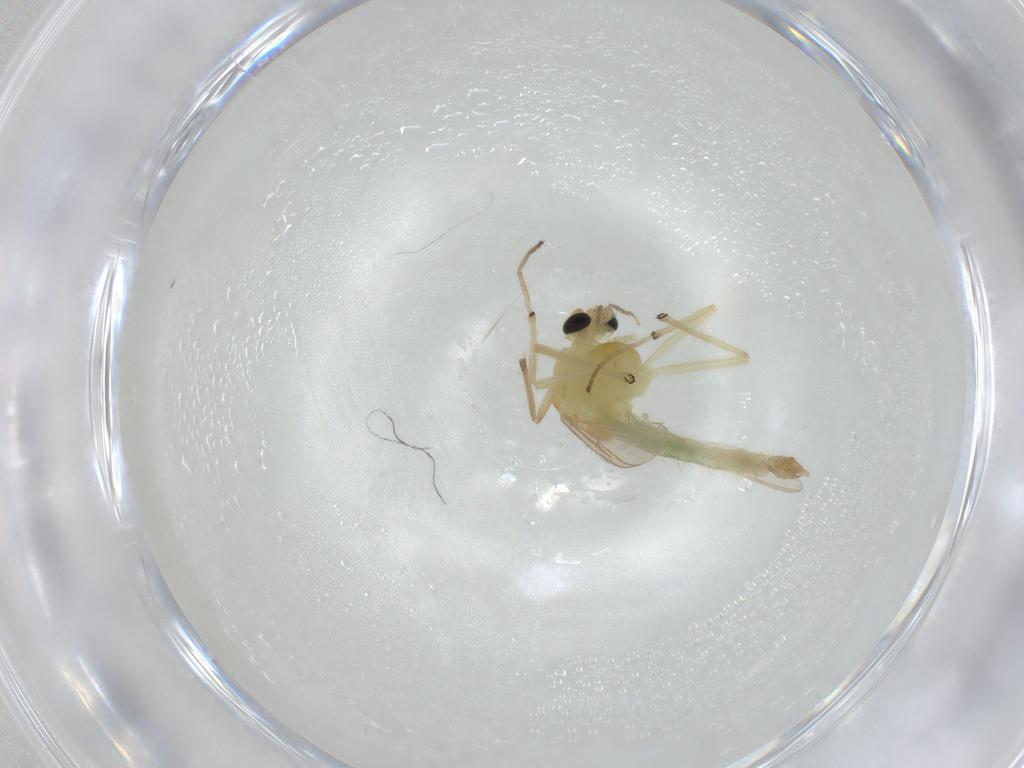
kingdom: Animalia
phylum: Arthropoda
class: Insecta
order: Diptera
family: Chironomidae
